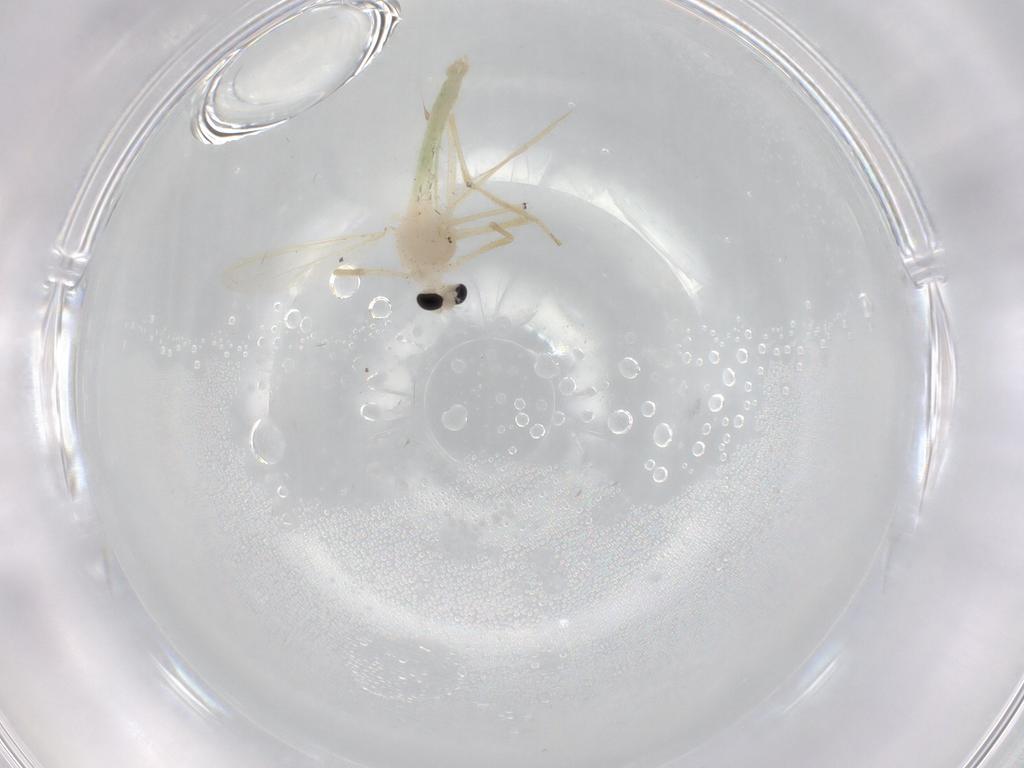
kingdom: Animalia
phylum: Arthropoda
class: Insecta
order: Diptera
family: Chironomidae
